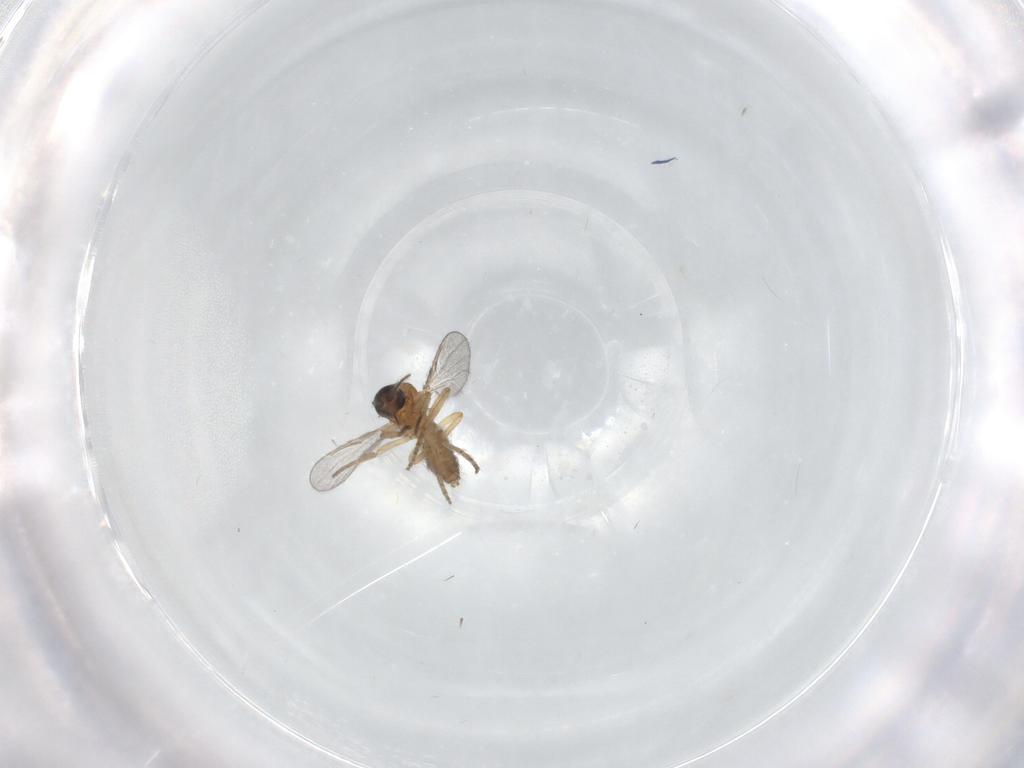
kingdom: Animalia
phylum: Arthropoda
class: Insecta
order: Diptera
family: Ceratopogonidae
